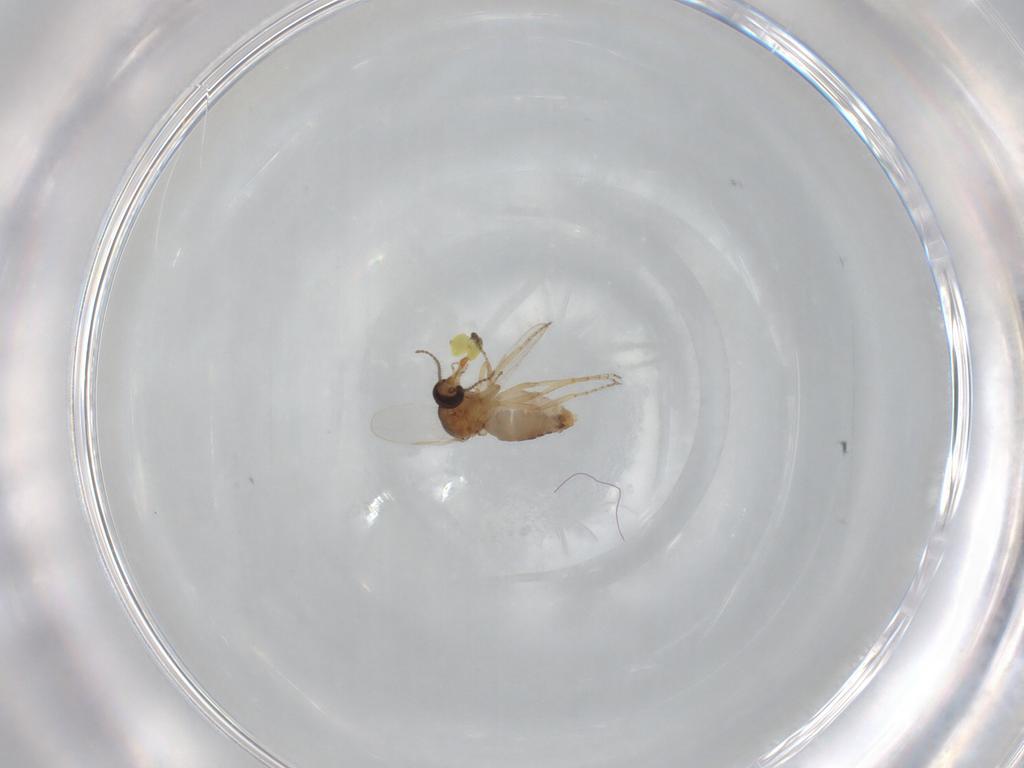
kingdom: Animalia
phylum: Arthropoda
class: Insecta
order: Diptera
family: Ceratopogonidae
